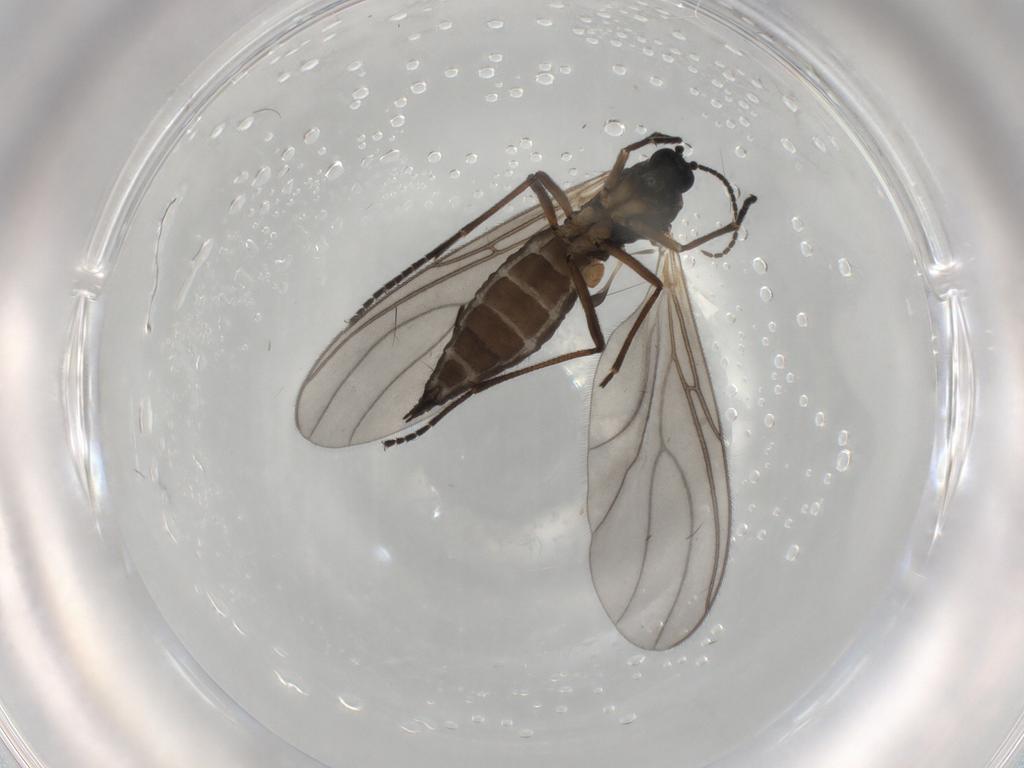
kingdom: Animalia
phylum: Arthropoda
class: Insecta
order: Diptera
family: Sciaridae
